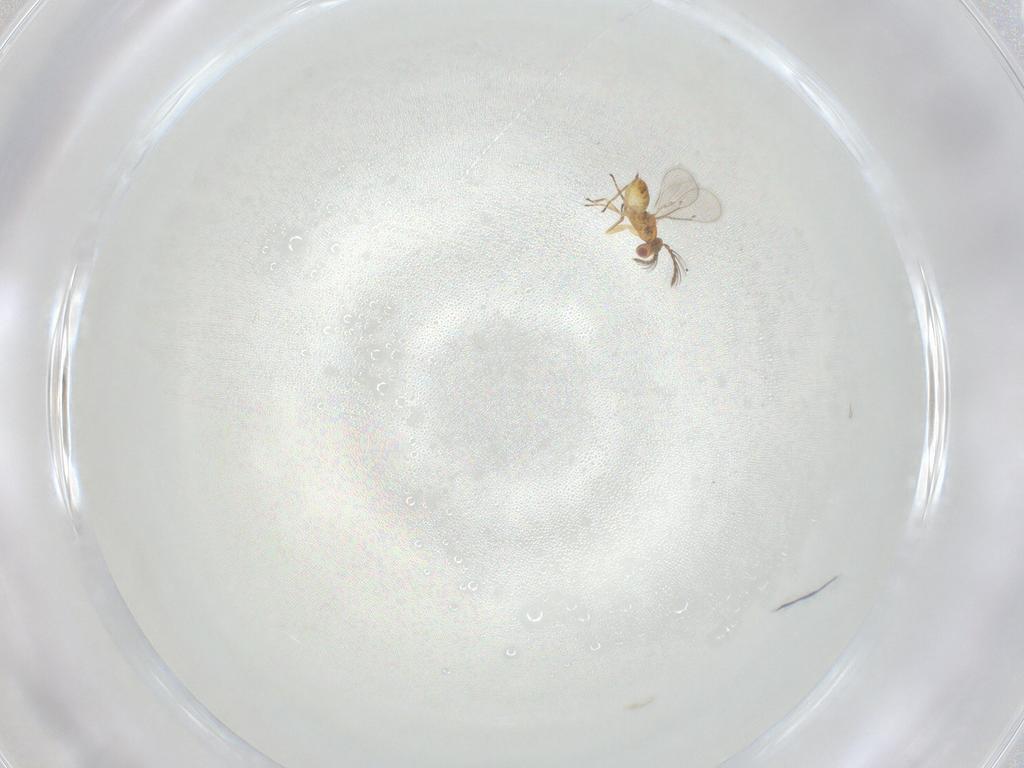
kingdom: Animalia
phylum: Arthropoda
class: Insecta
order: Hymenoptera
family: Eulophidae
